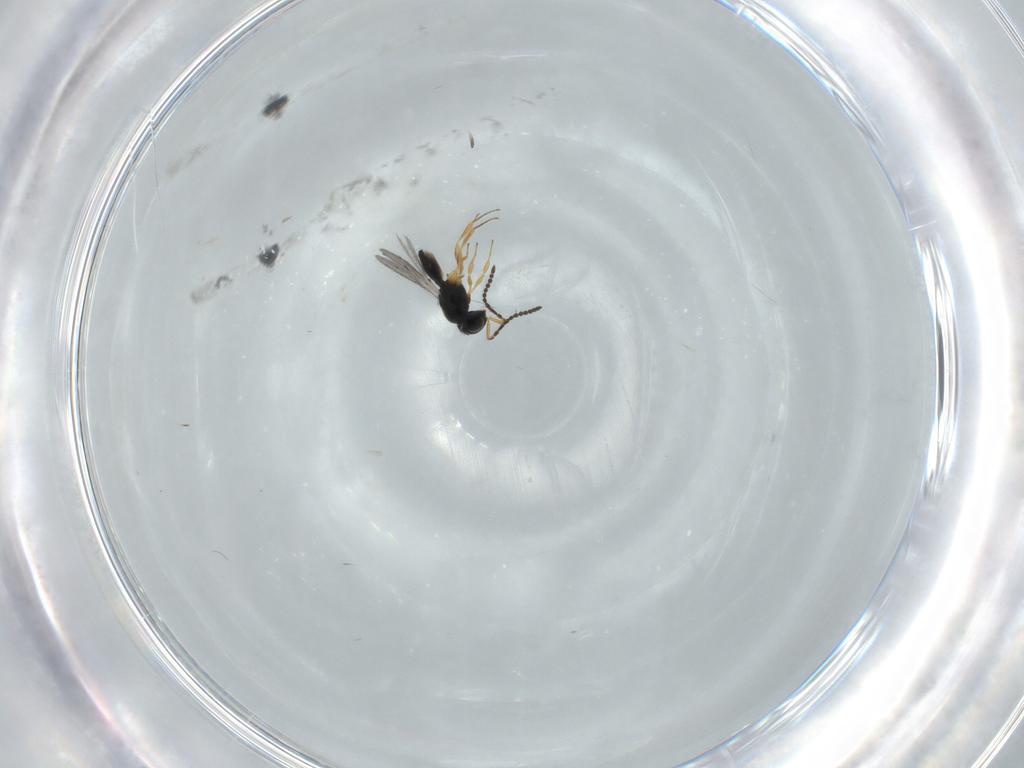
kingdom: Animalia
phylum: Arthropoda
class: Insecta
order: Hymenoptera
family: Scelionidae
